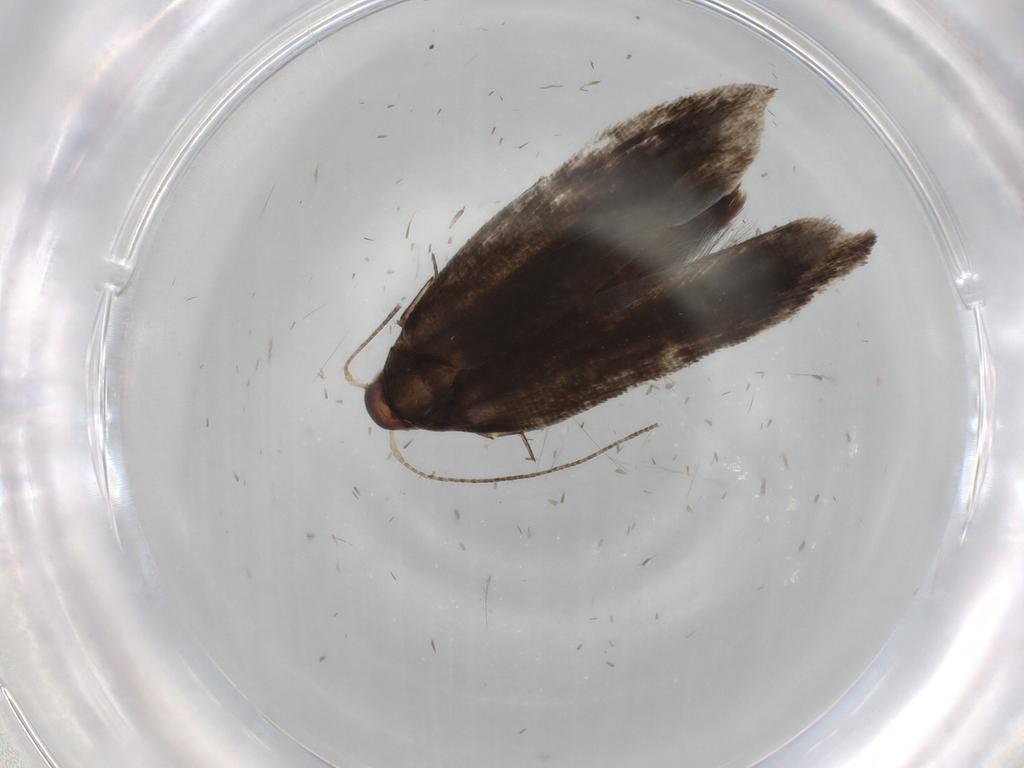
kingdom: Animalia
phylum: Arthropoda
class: Insecta
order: Lepidoptera
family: Gelechiidae
